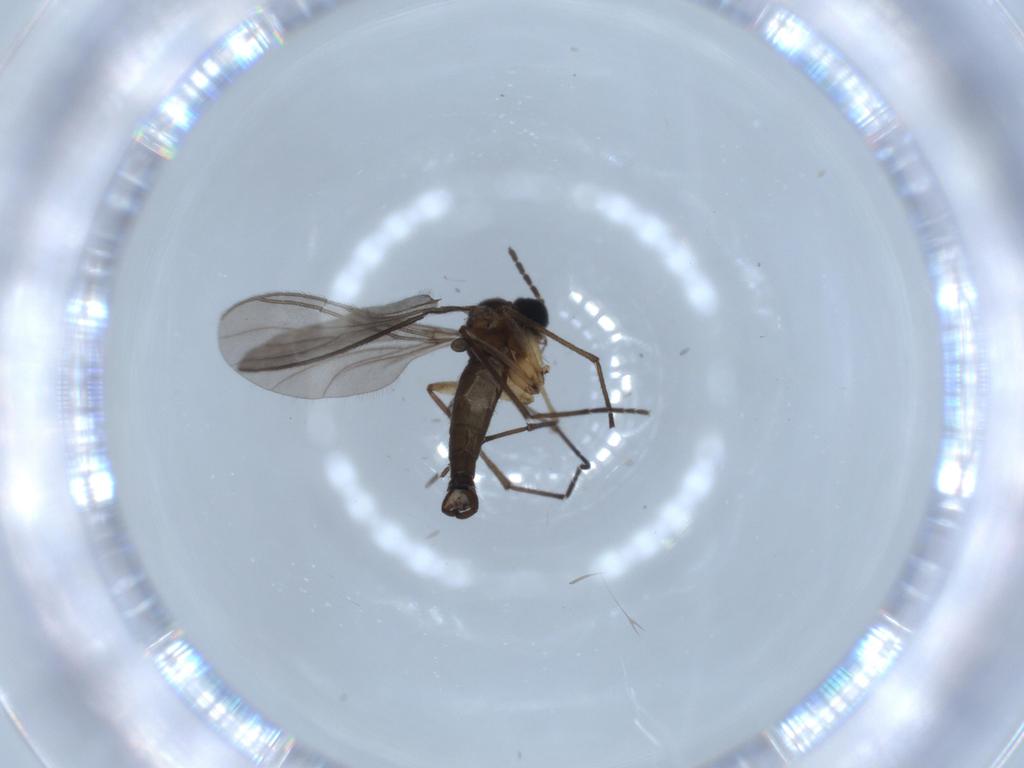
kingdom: Animalia
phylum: Arthropoda
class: Insecta
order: Diptera
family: Sciaridae
